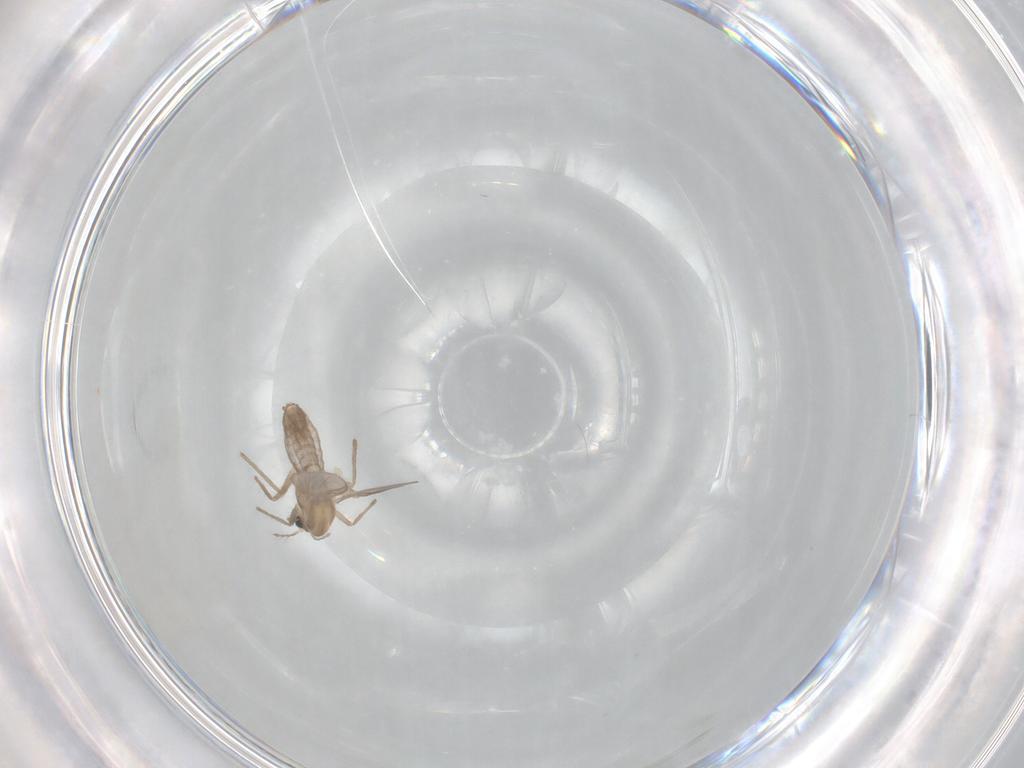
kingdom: Animalia
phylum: Arthropoda
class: Insecta
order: Diptera
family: Chironomidae
